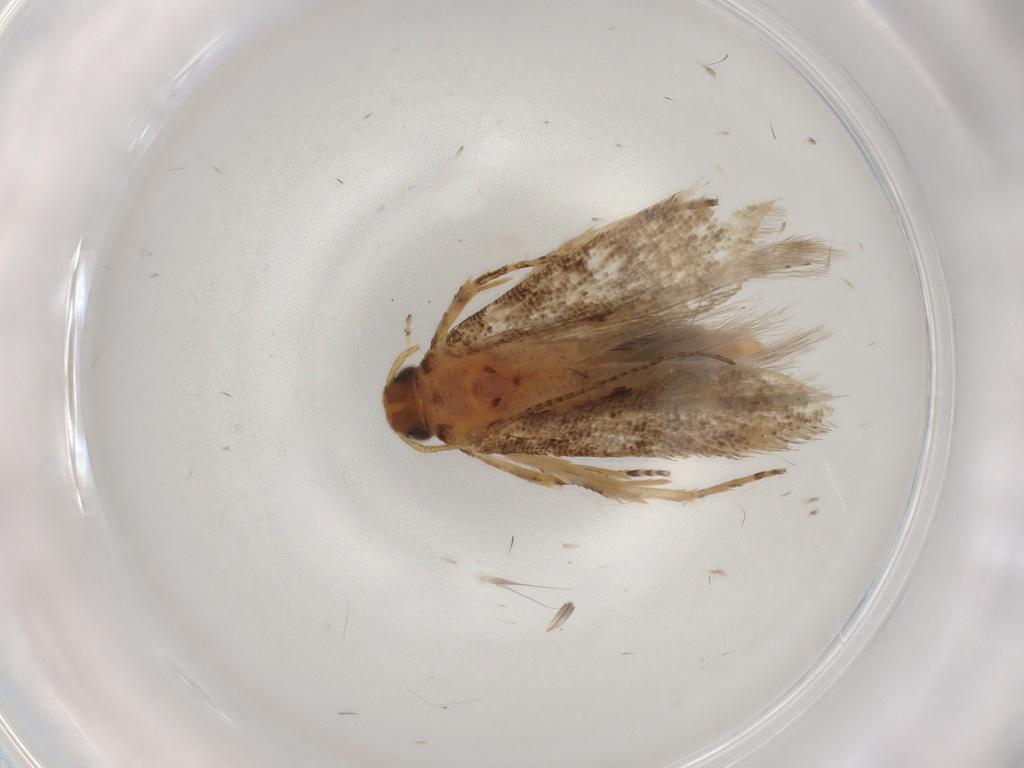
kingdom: Animalia
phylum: Arthropoda
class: Insecta
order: Lepidoptera
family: Gelechiidae
